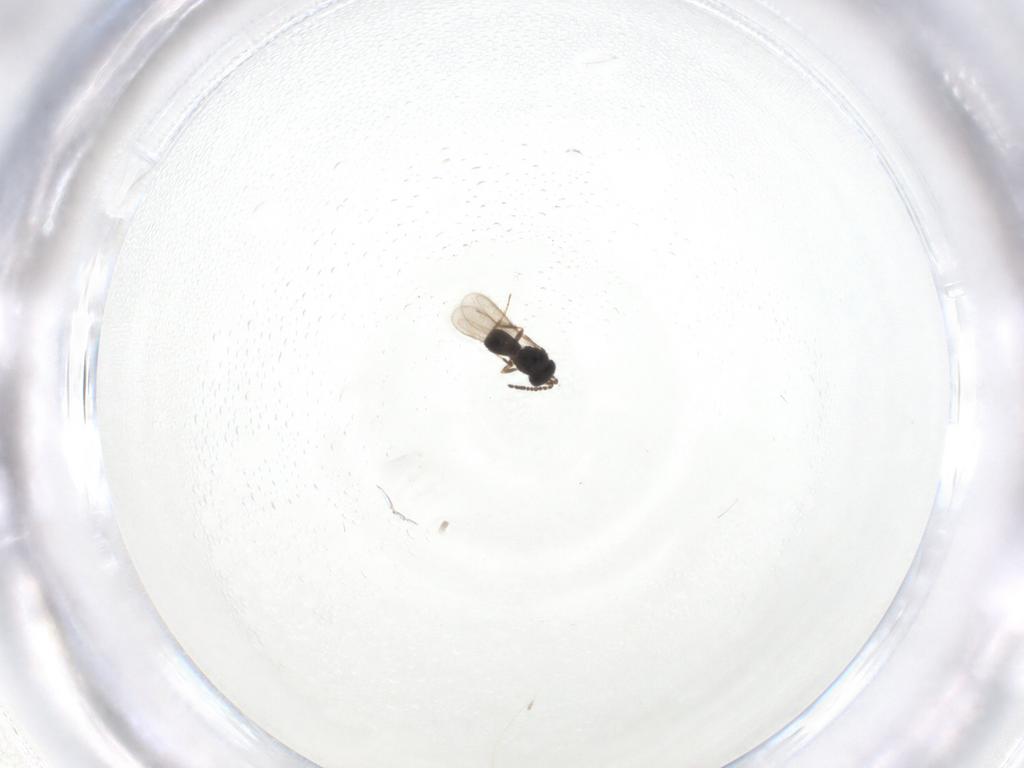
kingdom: Animalia
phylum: Arthropoda
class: Insecta
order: Hymenoptera
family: Scelionidae
